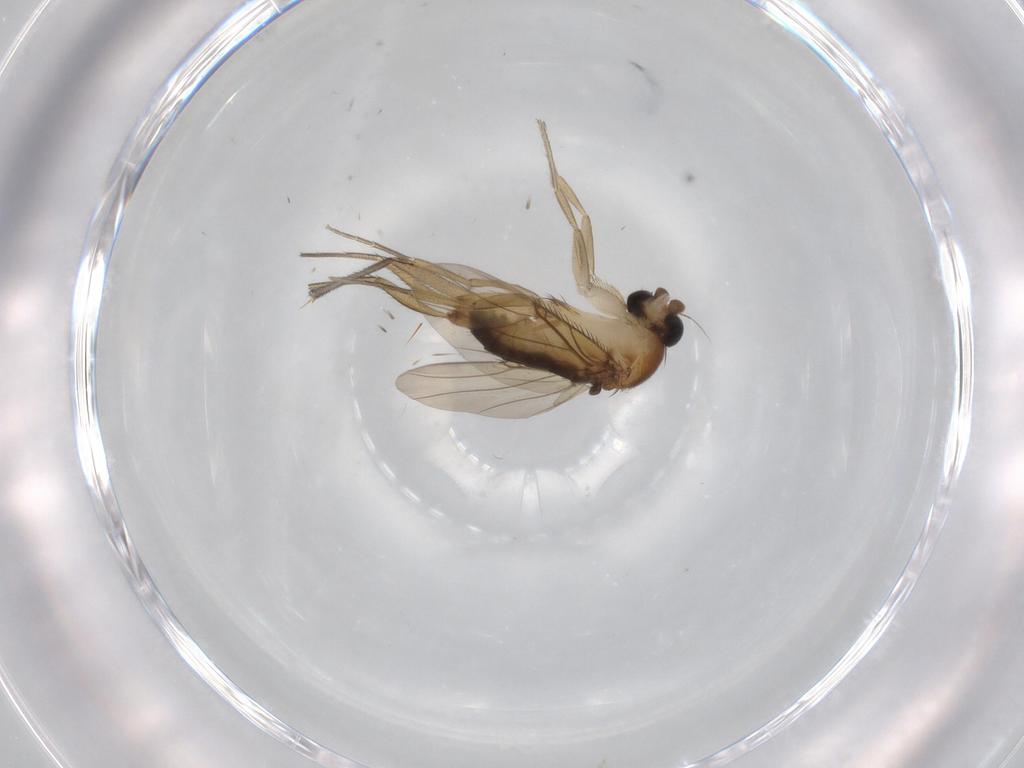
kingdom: Animalia
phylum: Arthropoda
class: Insecta
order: Diptera
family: Phoridae
